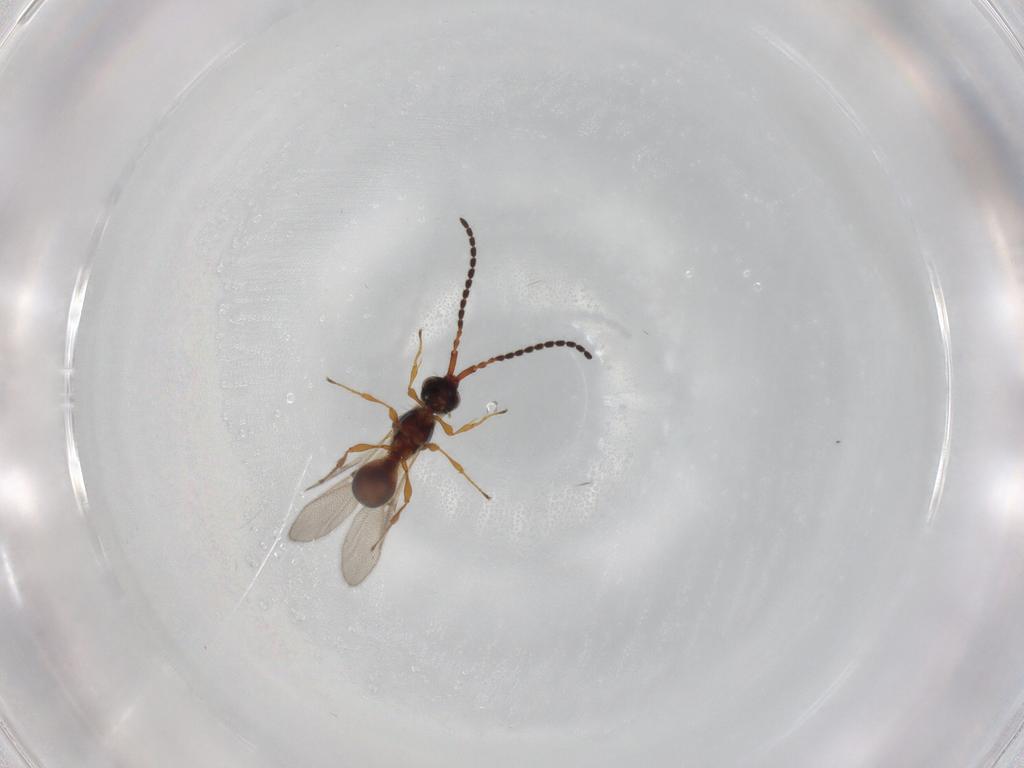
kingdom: Animalia
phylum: Arthropoda
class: Insecta
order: Hymenoptera
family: Diapriidae
